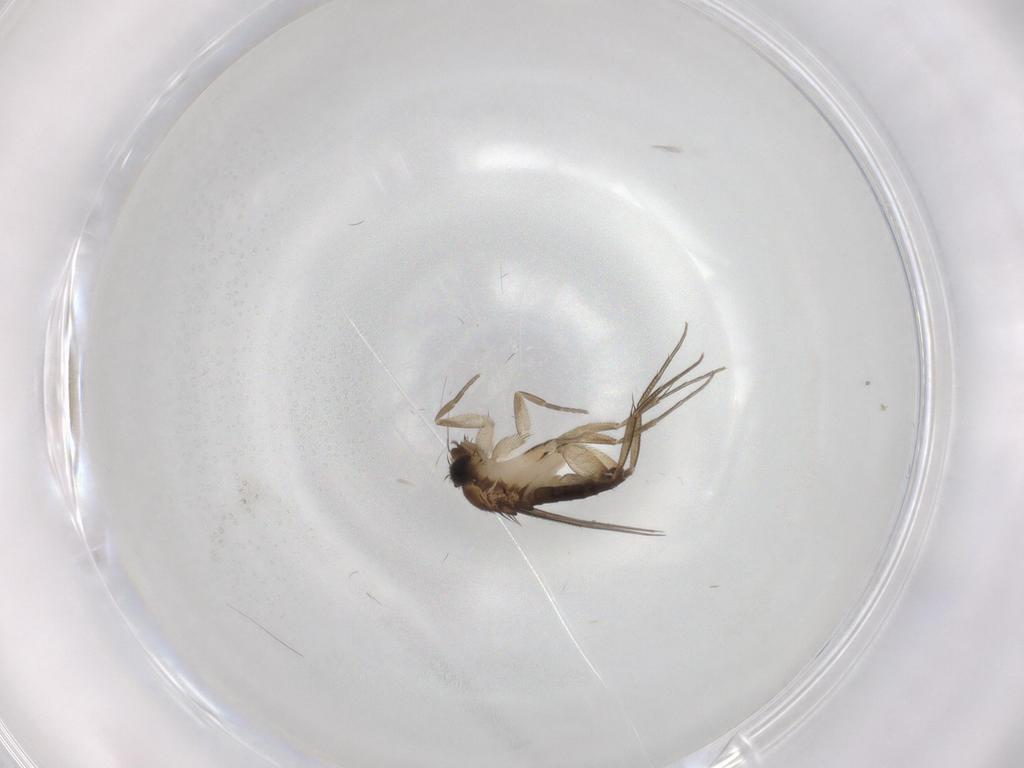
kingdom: Animalia
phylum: Arthropoda
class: Insecta
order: Diptera
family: Phoridae
